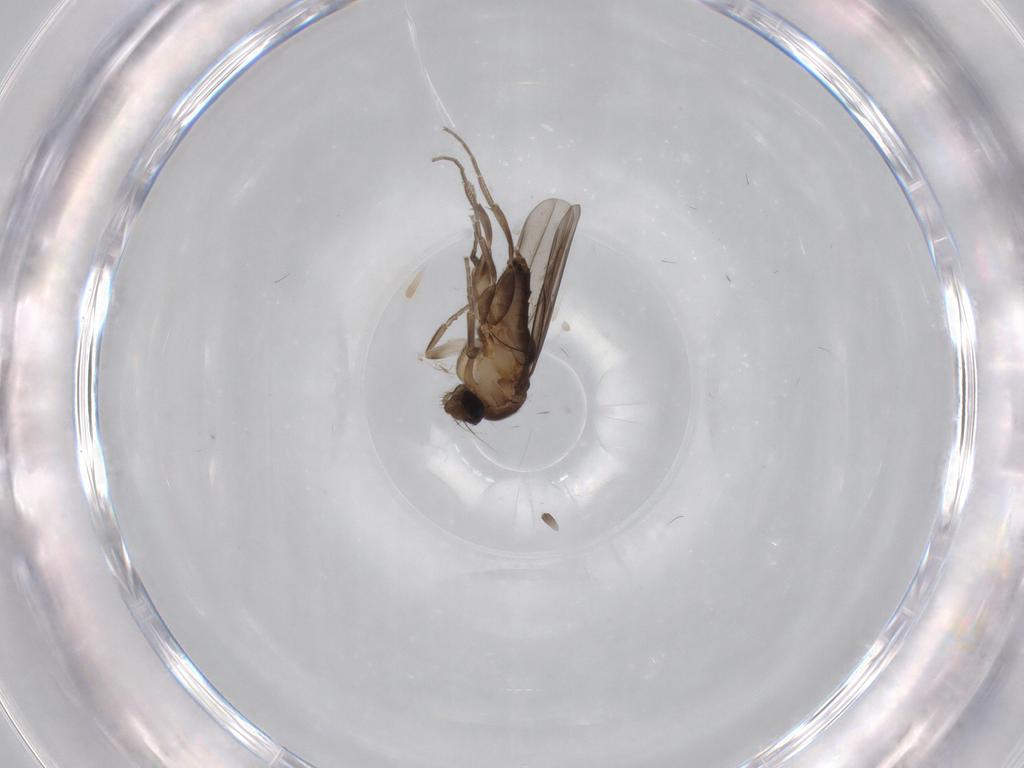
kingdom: Animalia
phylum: Arthropoda
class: Insecta
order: Diptera
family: Cecidomyiidae
